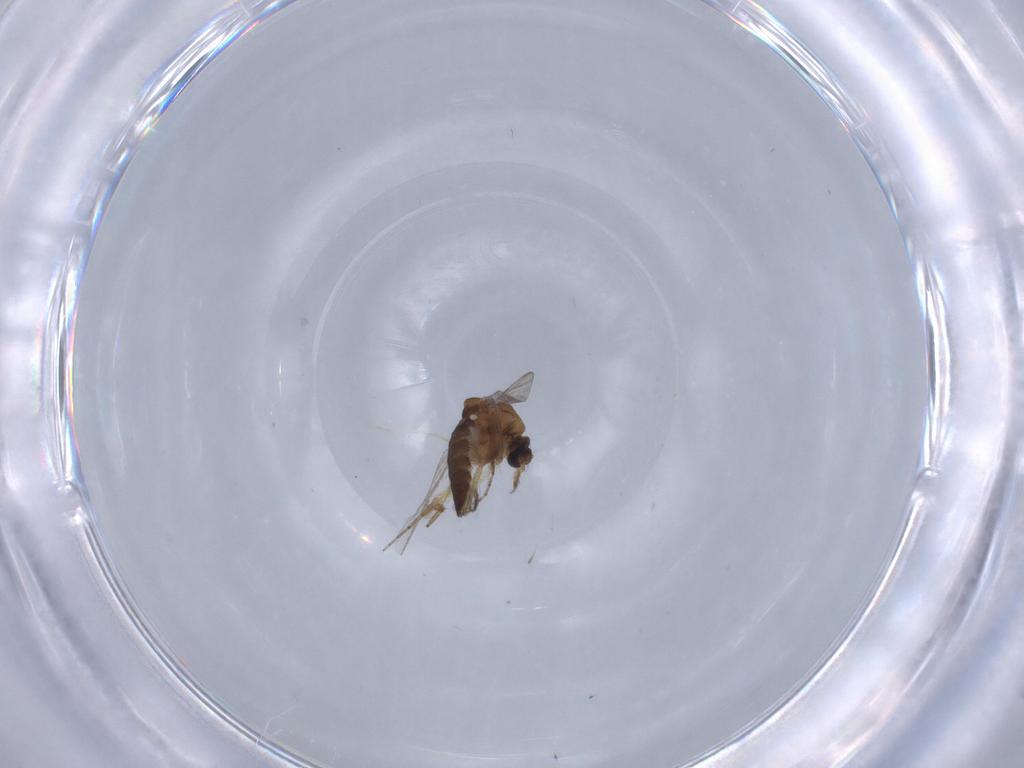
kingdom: Animalia
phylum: Arthropoda
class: Insecta
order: Diptera
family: Ceratopogonidae
